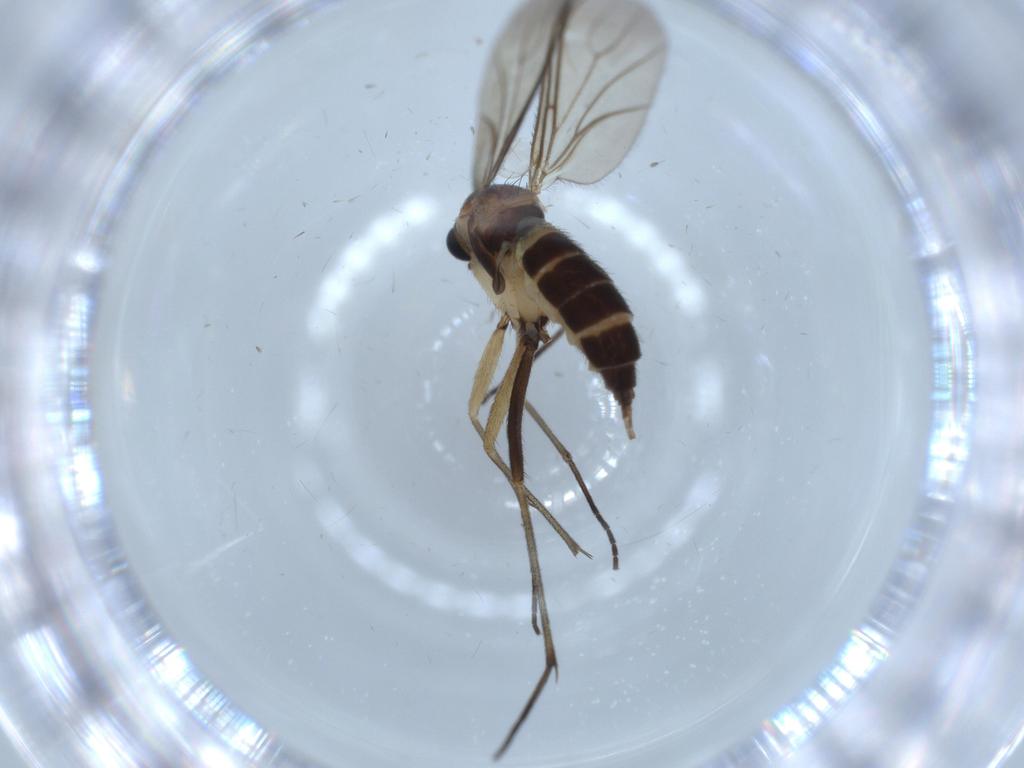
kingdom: Animalia
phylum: Arthropoda
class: Insecta
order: Diptera
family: Sciaridae
